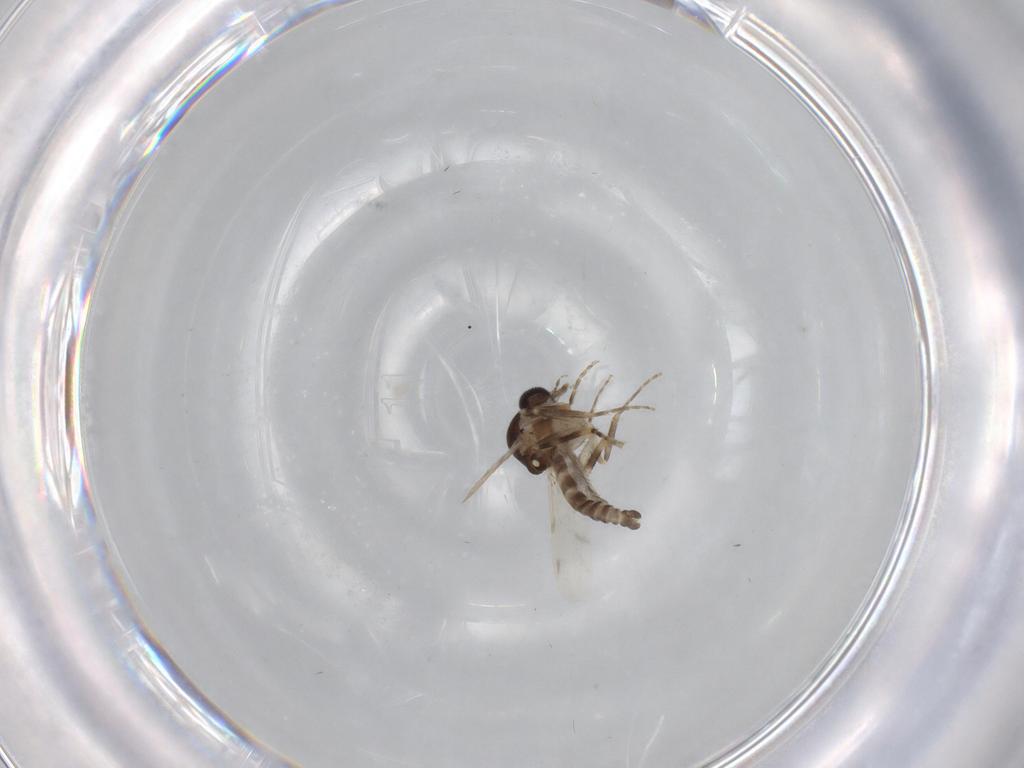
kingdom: Animalia
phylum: Arthropoda
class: Insecta
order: Diptera
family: Ceratopogonidae
